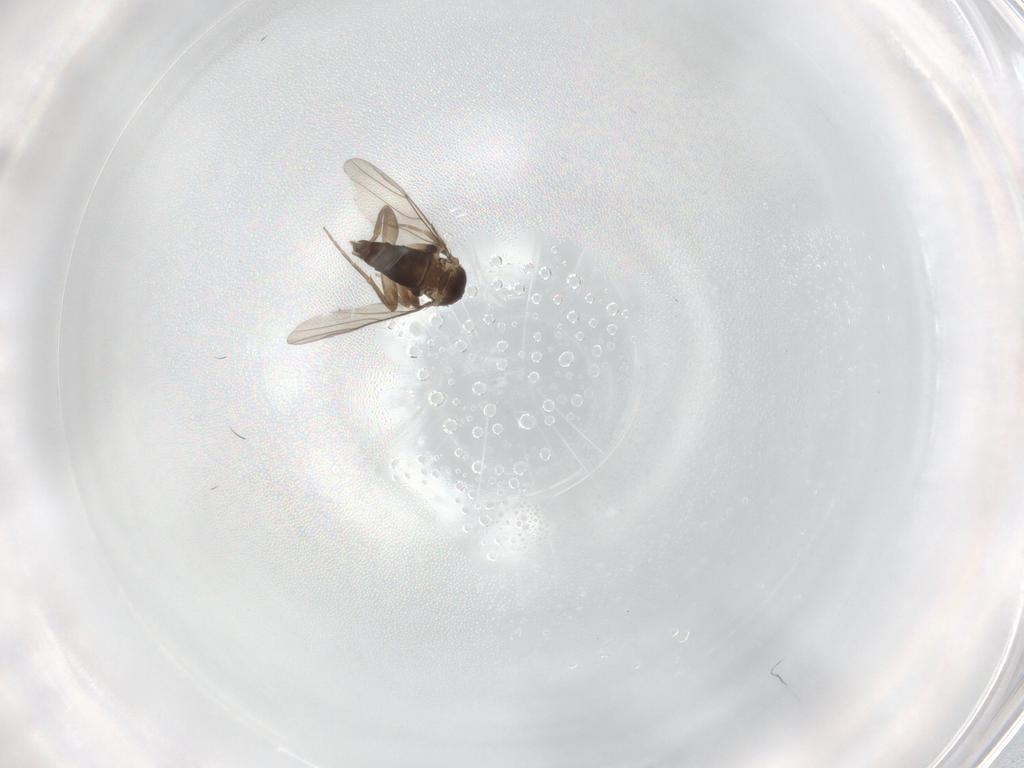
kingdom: Animalia
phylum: Arthropoda
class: Insecta
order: Diptera
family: Phoridae
